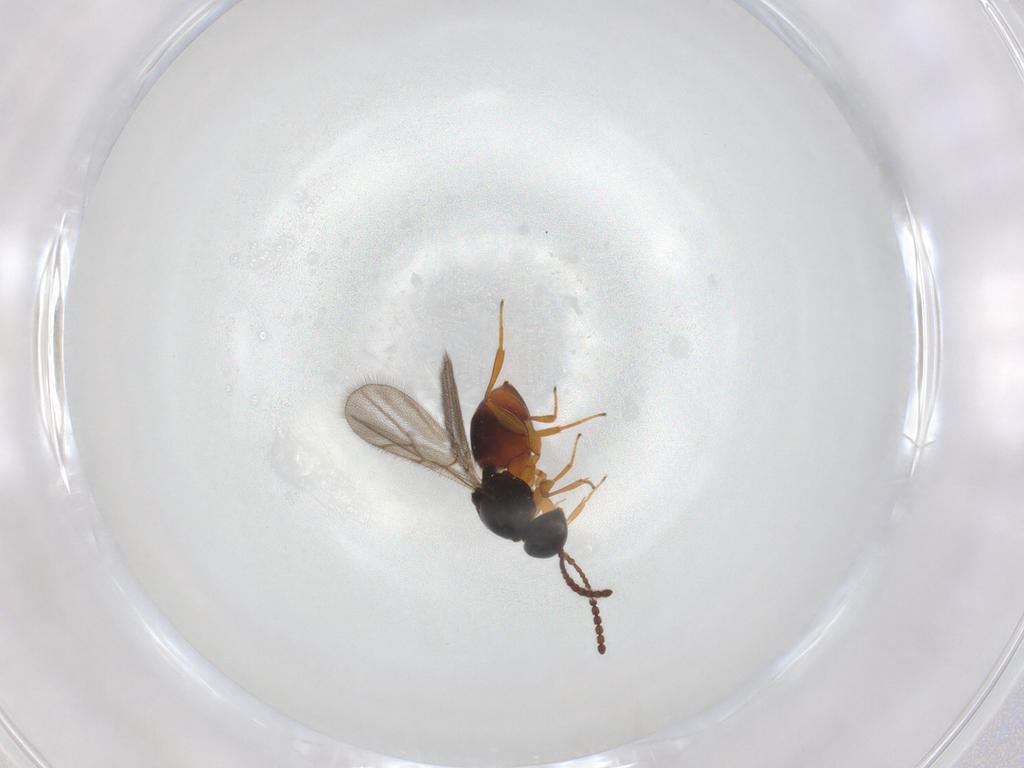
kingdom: Animalia
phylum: Arthropoda
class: Insecta
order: Hymenoptera
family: Figitidae
